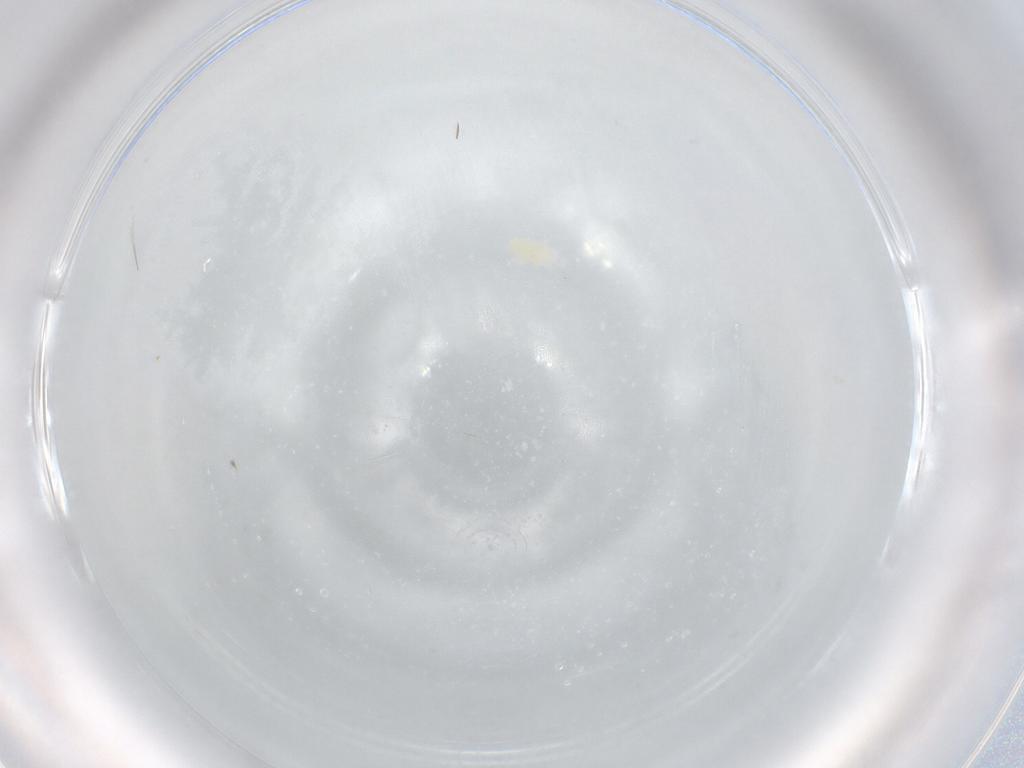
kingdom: Animalia
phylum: Arthropoda
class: Arachnida
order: Trombidiformes
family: Eupodidae
